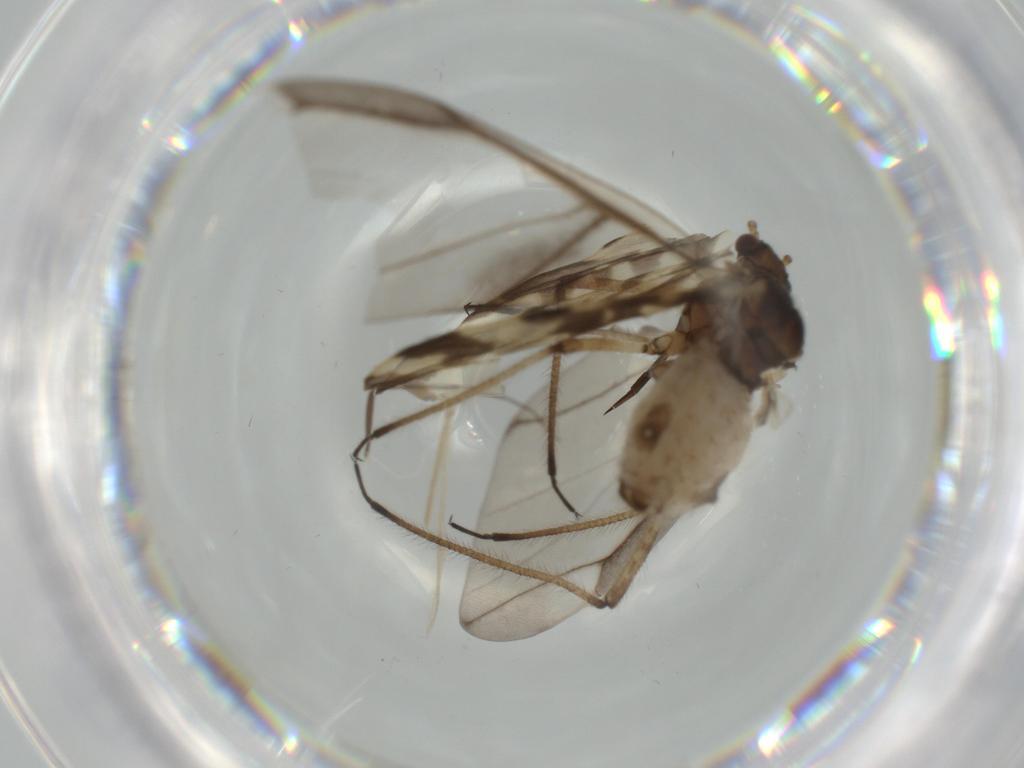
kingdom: Animalia
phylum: Arthropoda
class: Insecta
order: Hemiptera
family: Aphididae
